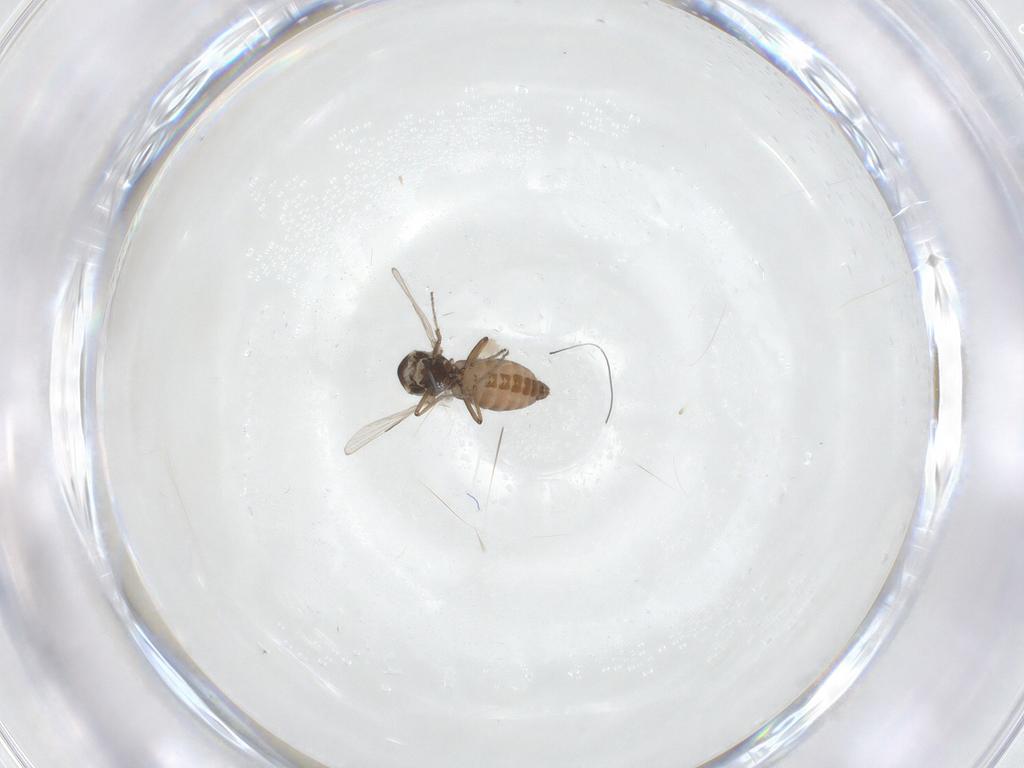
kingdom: Animalia
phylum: Arthropoda
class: Insecta
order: Diptera
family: Ceratopogonidae
